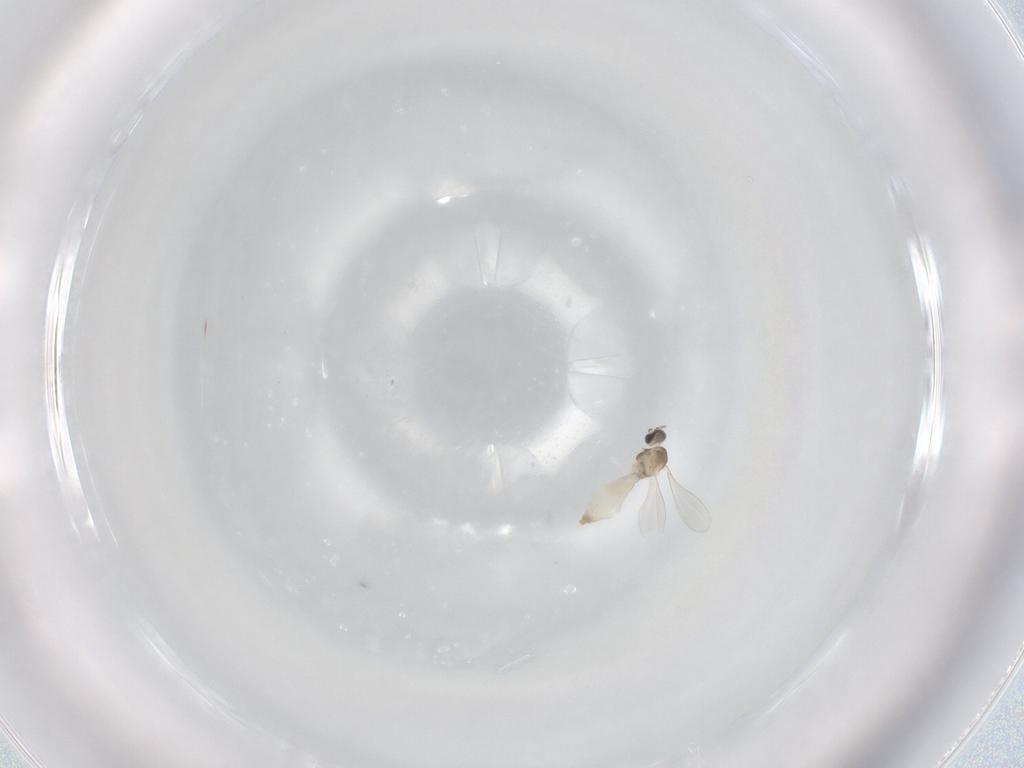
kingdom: Animalia
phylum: Arthropoda
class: Insecta
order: Diptera
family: Cecidomyiidae
